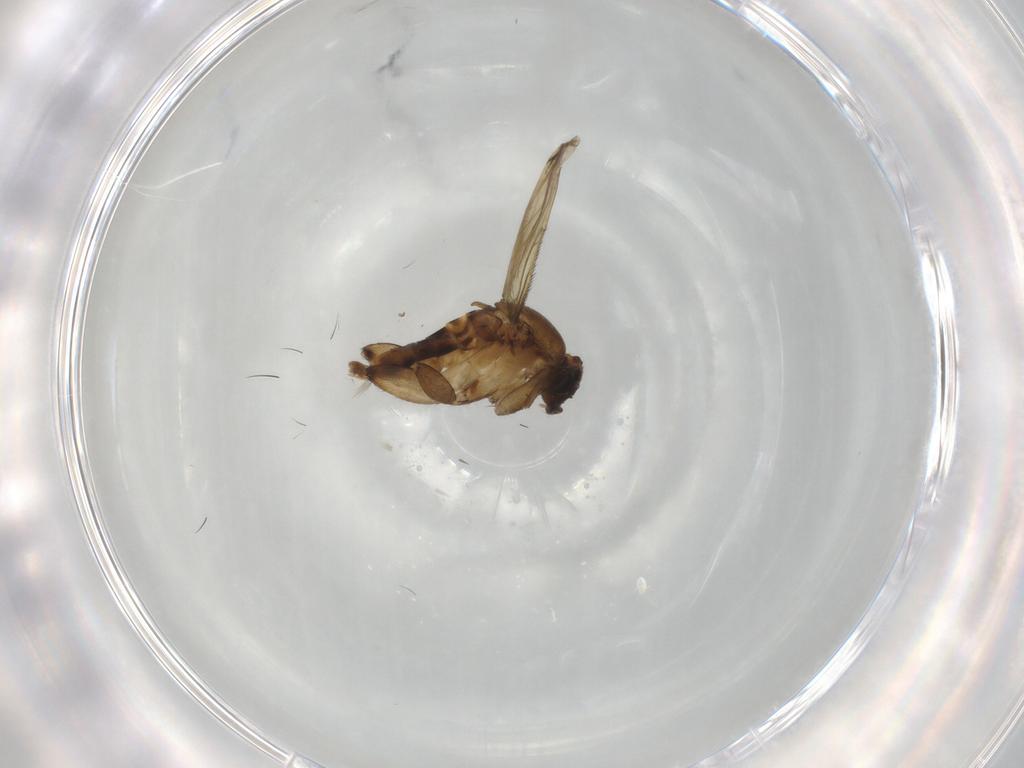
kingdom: Animalia
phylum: Arthropoda
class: Insecta
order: Diptera
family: Phoridae
